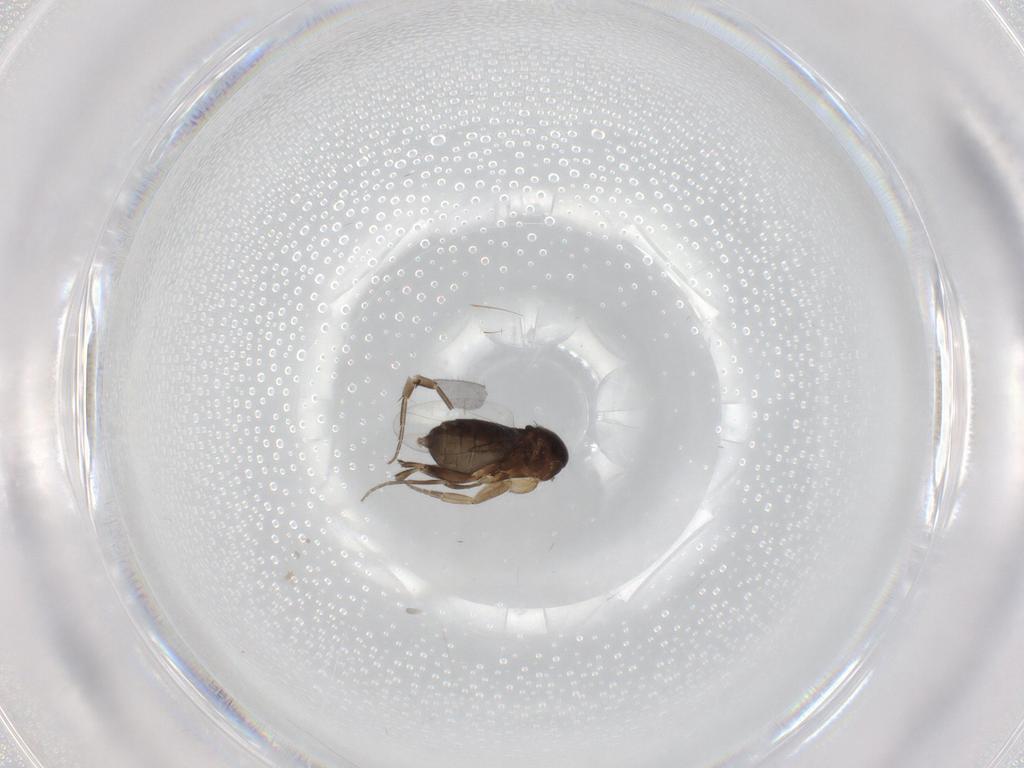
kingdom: Animalia
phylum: Arthropoda
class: Insecta
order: Diptera
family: Phoridae
